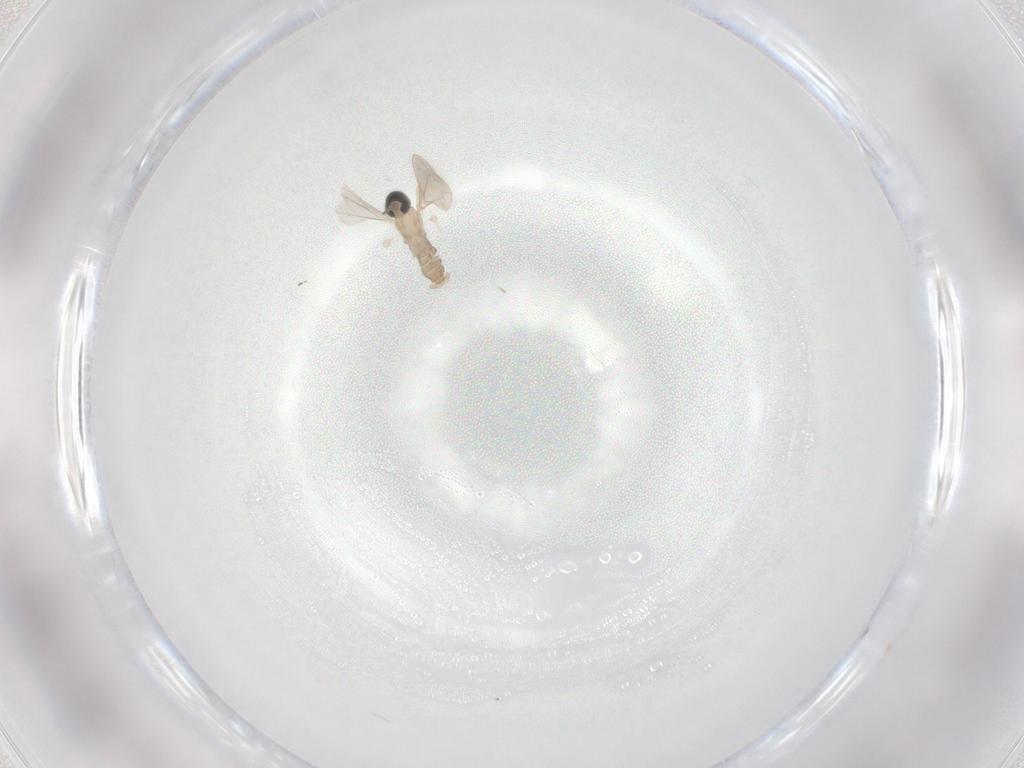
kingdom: Animalia
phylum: Arthropoda
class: Insecta
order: Diptera
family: Cecidomyiidae
